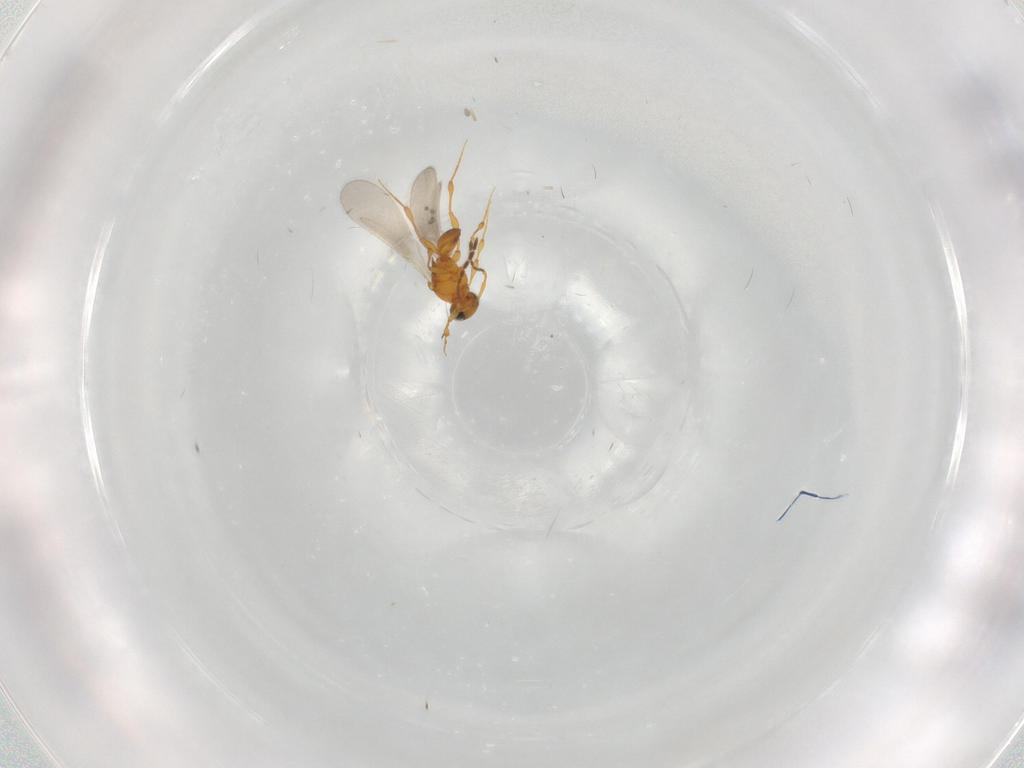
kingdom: Animalia
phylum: Arthropoda
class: Insecta
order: Hymenoptera
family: Platygastridae
